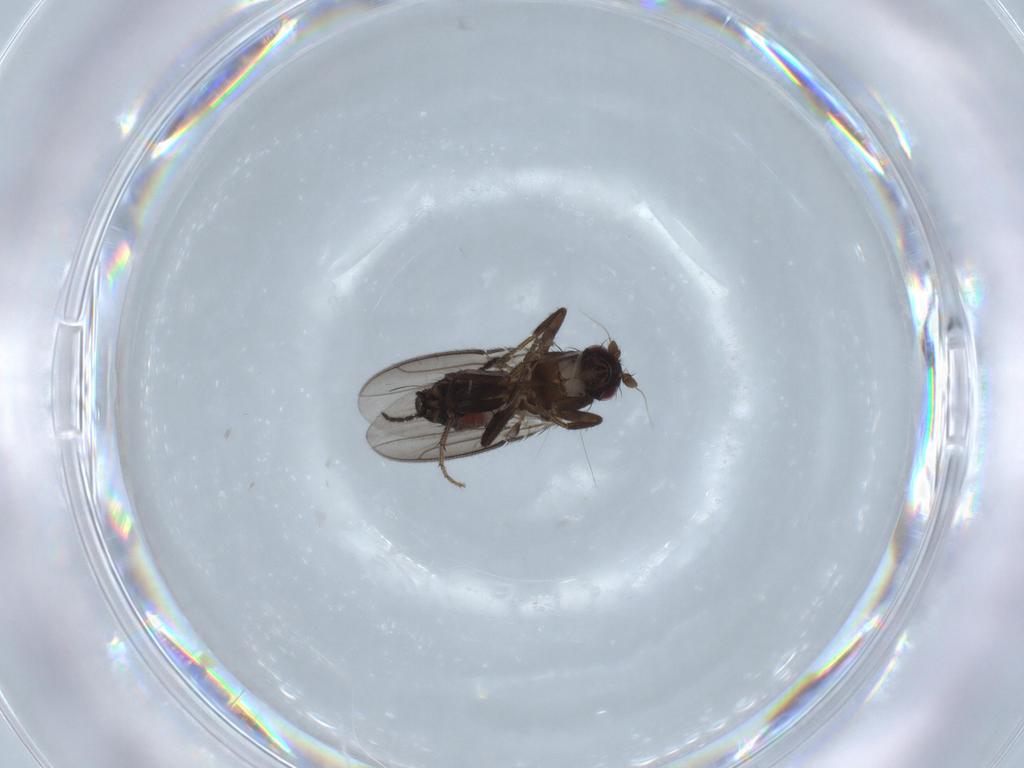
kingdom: Animalia
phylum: Arthropoda
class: Insecta
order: Diptera
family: Sphaeroceridae
